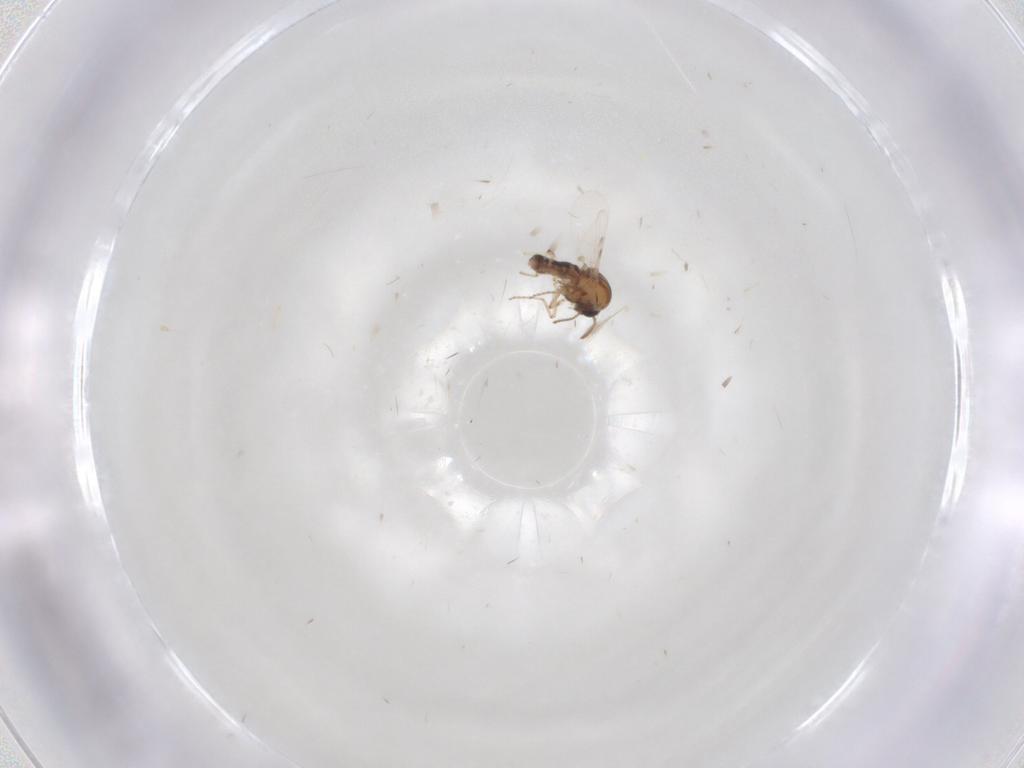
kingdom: Animalia
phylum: Arthropoda
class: Insecta
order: Diptera
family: Ceratopogonidae
